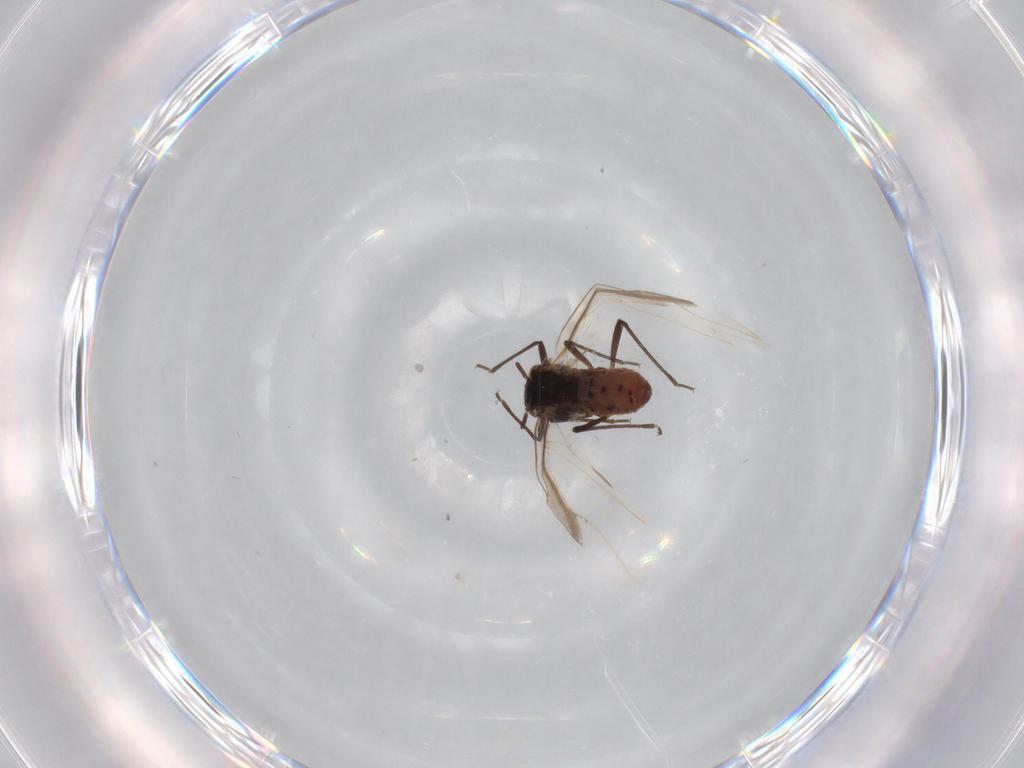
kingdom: Animalia
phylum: Arthropoda
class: Insecta
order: Hemiptera
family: Aphididae
